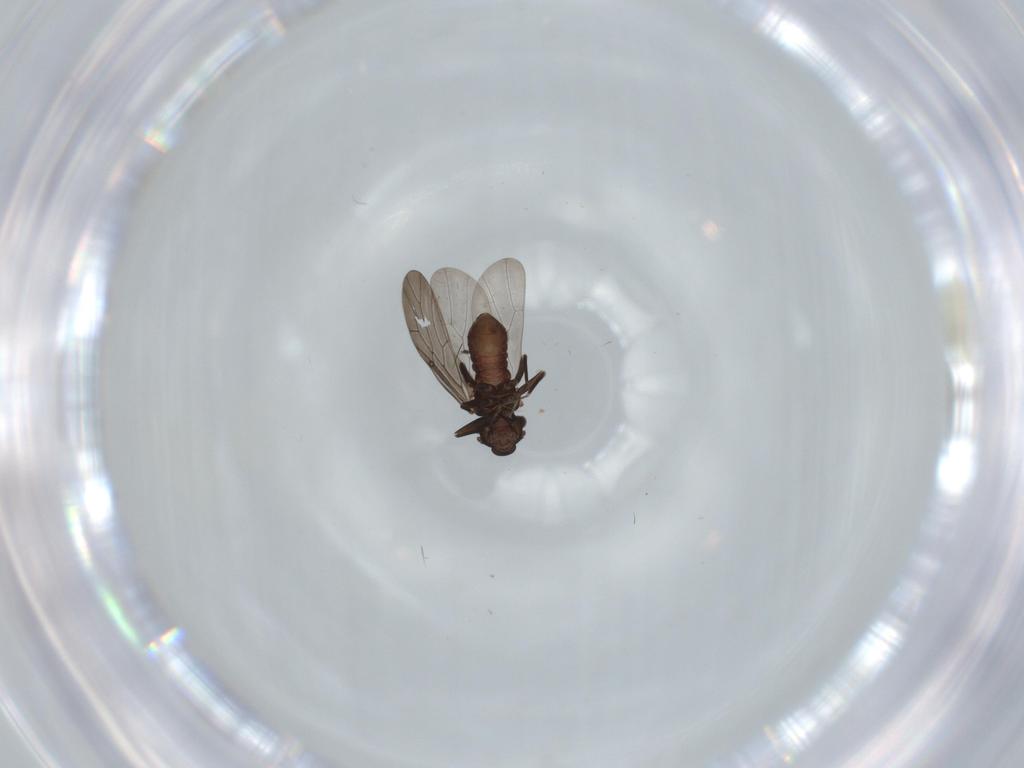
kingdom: Animalia
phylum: Arthropoda
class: Insecta
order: Psocodea
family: Lepidopsocidae
